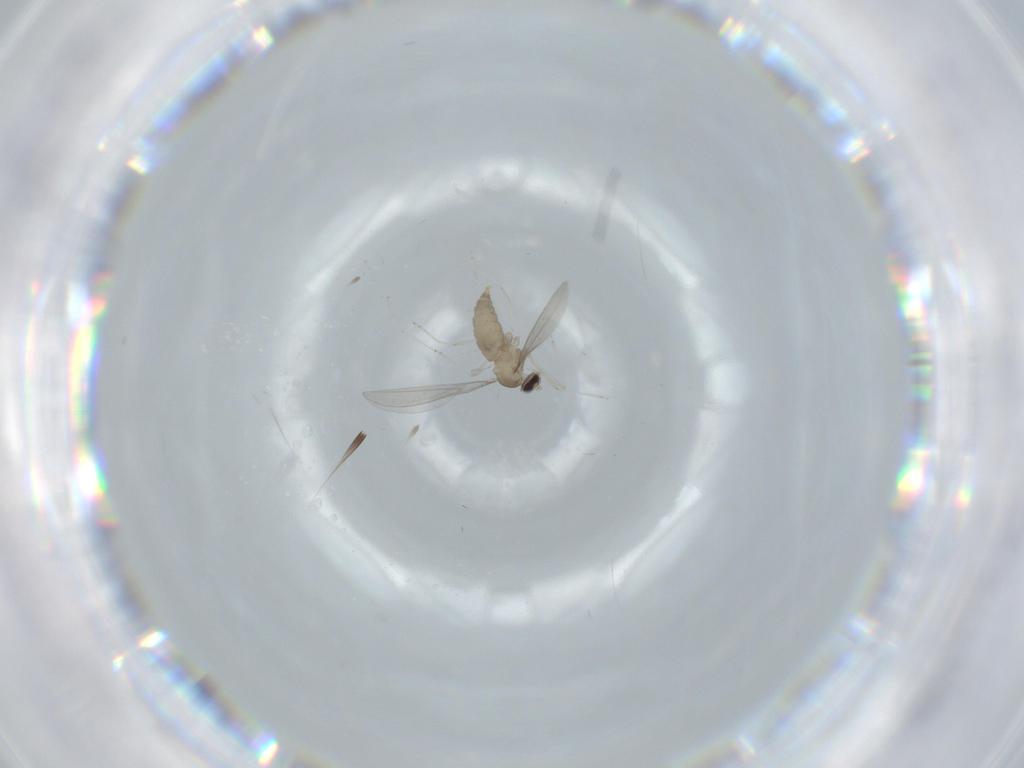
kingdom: Animalia
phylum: Arthropoda
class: Insecta
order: Diptera
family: Cecidomyiidae
